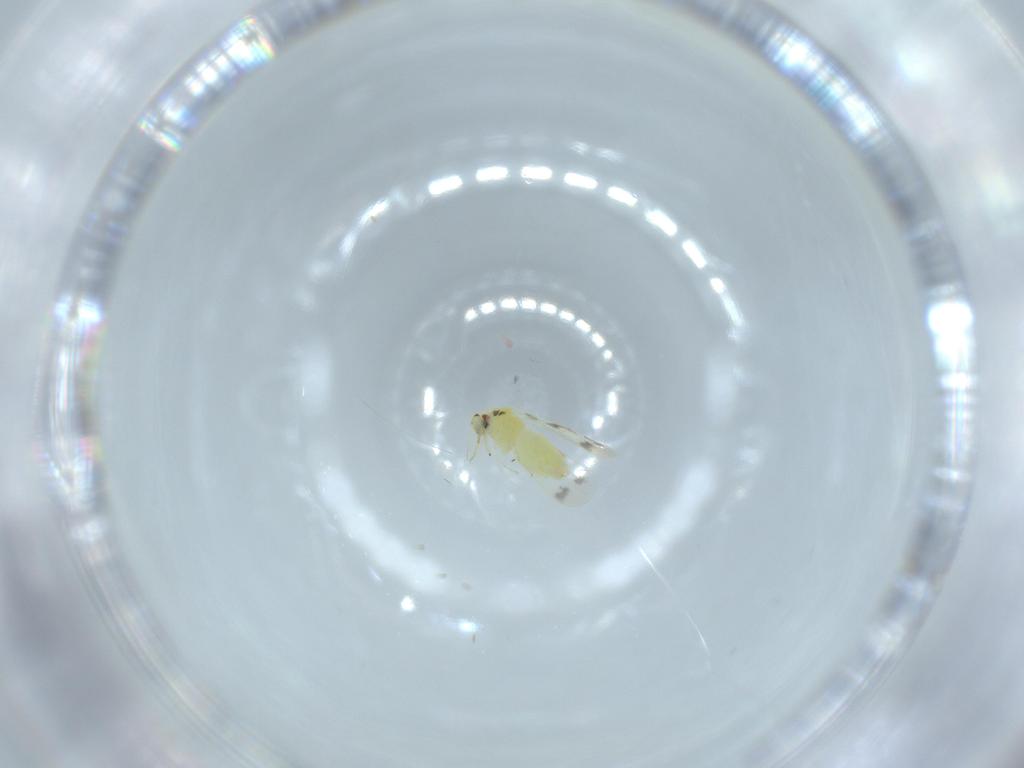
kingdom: Animalia
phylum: Arthropoda
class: Insecta
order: Hemiptera
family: Aleyrodidae
